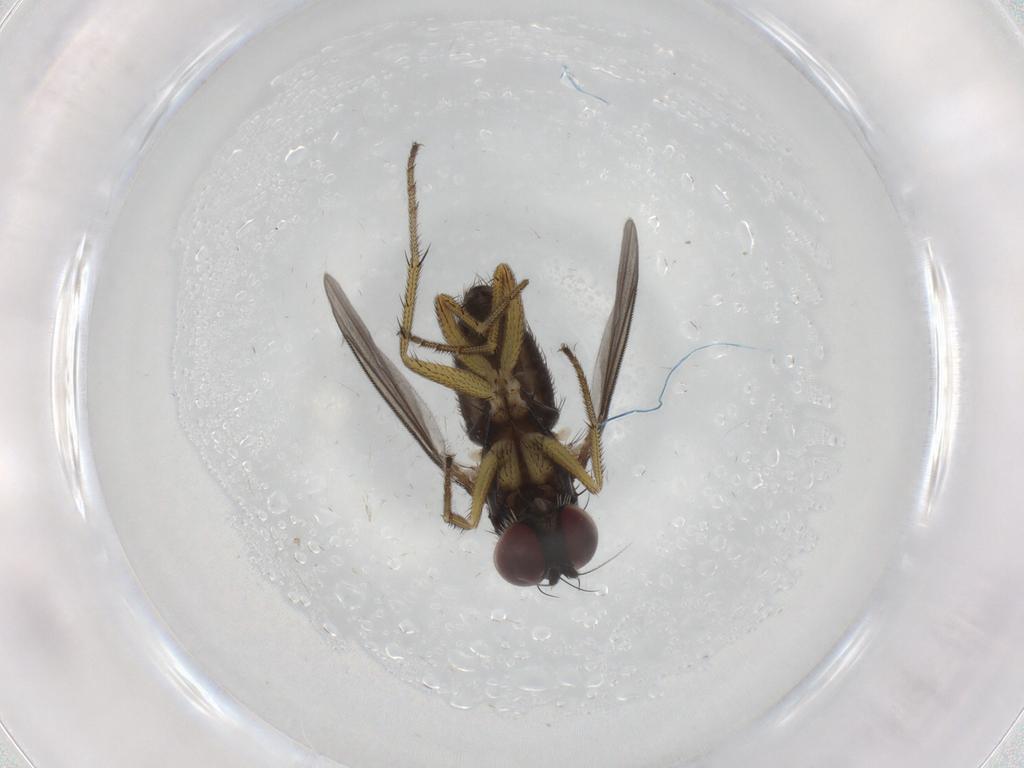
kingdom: Animalia
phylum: Arthropoda
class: Insecta
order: Diptera
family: Dolichopodidae
